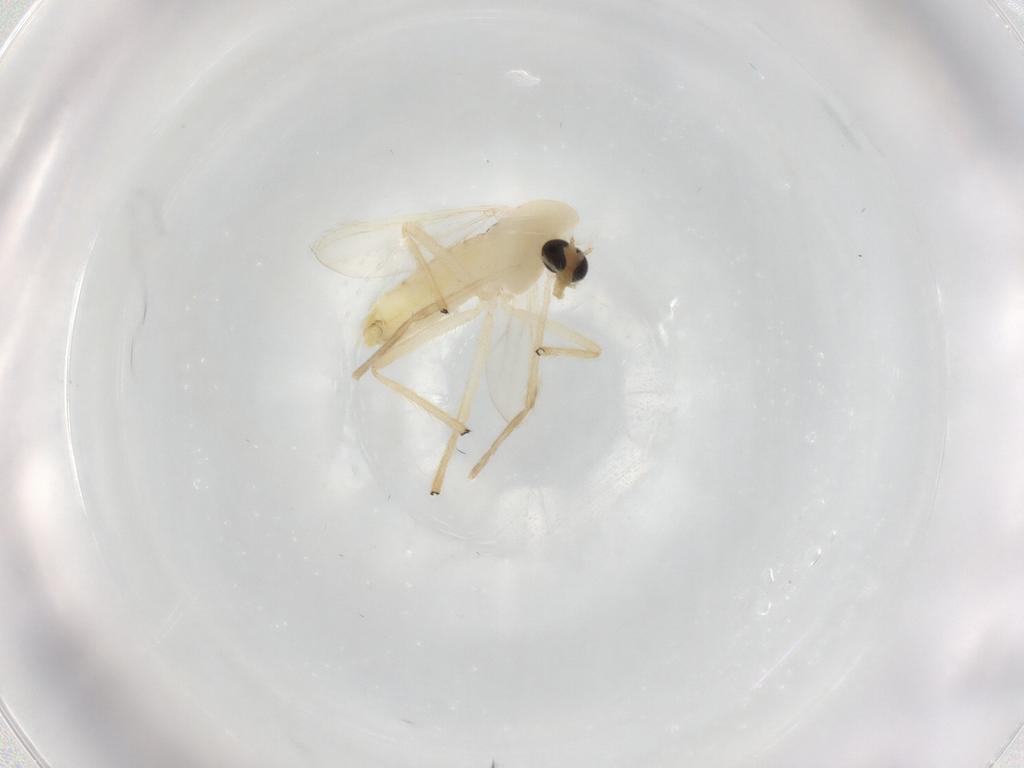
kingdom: Animalia
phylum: Arthropoda
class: Insecta
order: Diptera
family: Chironomidae
